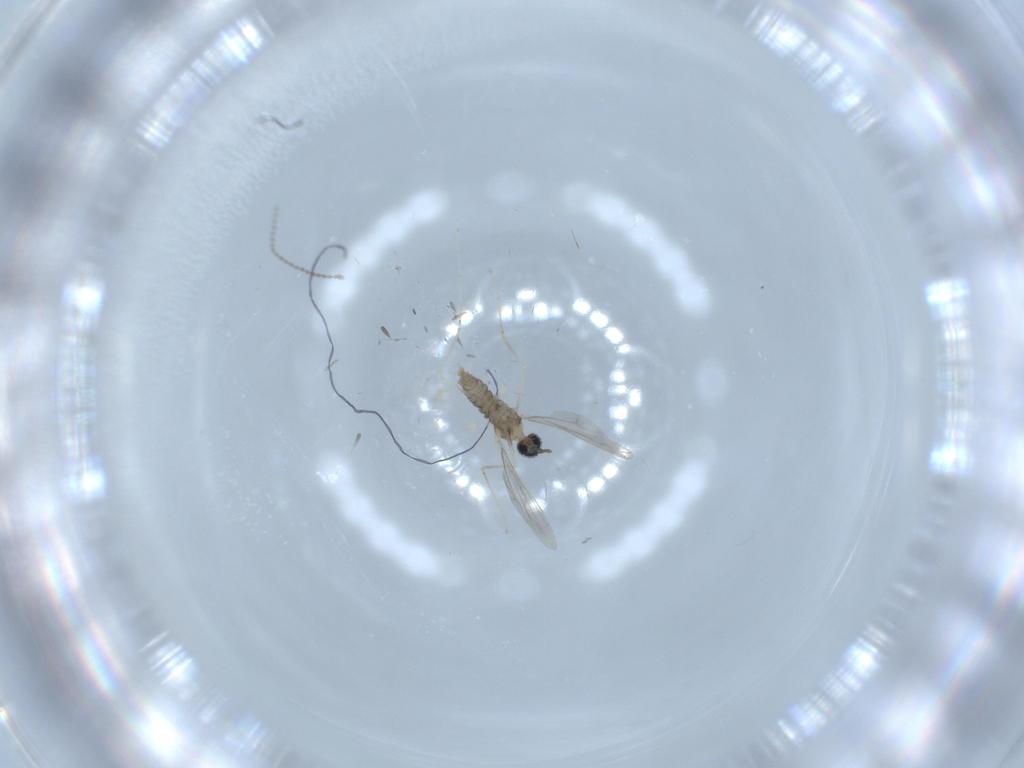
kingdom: Animalia
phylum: Arthropoda
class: Insecta
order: Diptera
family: Cecidomyiidae
